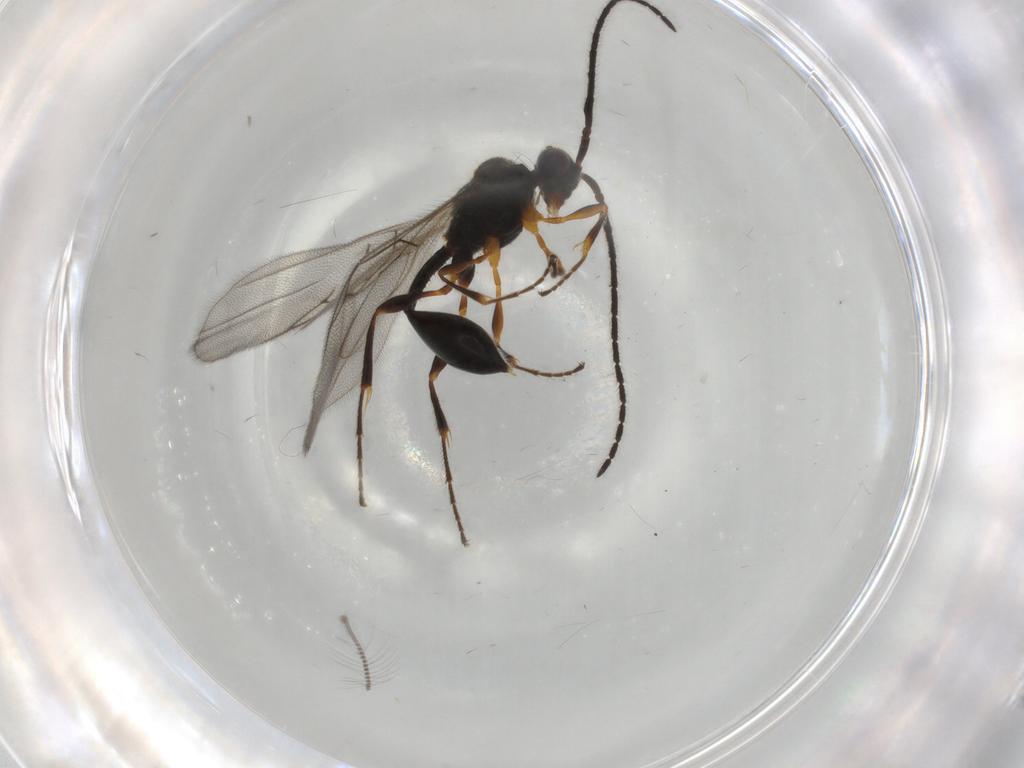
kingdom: Animalia
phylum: Arthropoda
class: Insecta
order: Hymenoptera
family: Diapriidae
